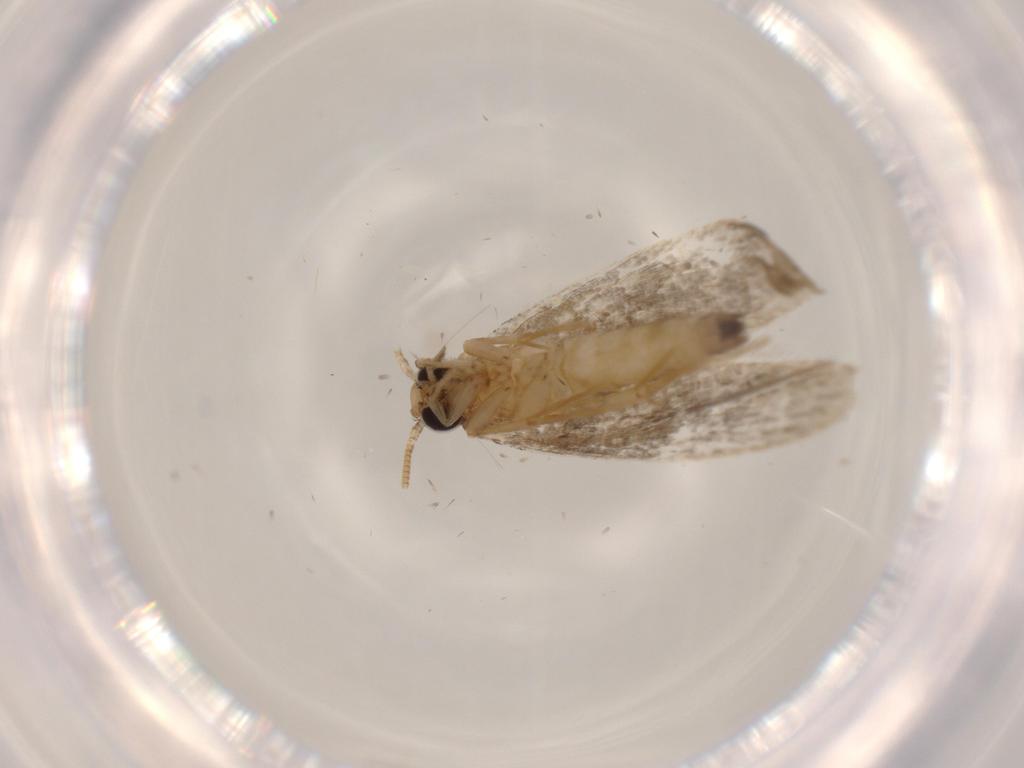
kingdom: Animalia
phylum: Arthropoda
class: Insecta
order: Lepidoptera
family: Tineidae
